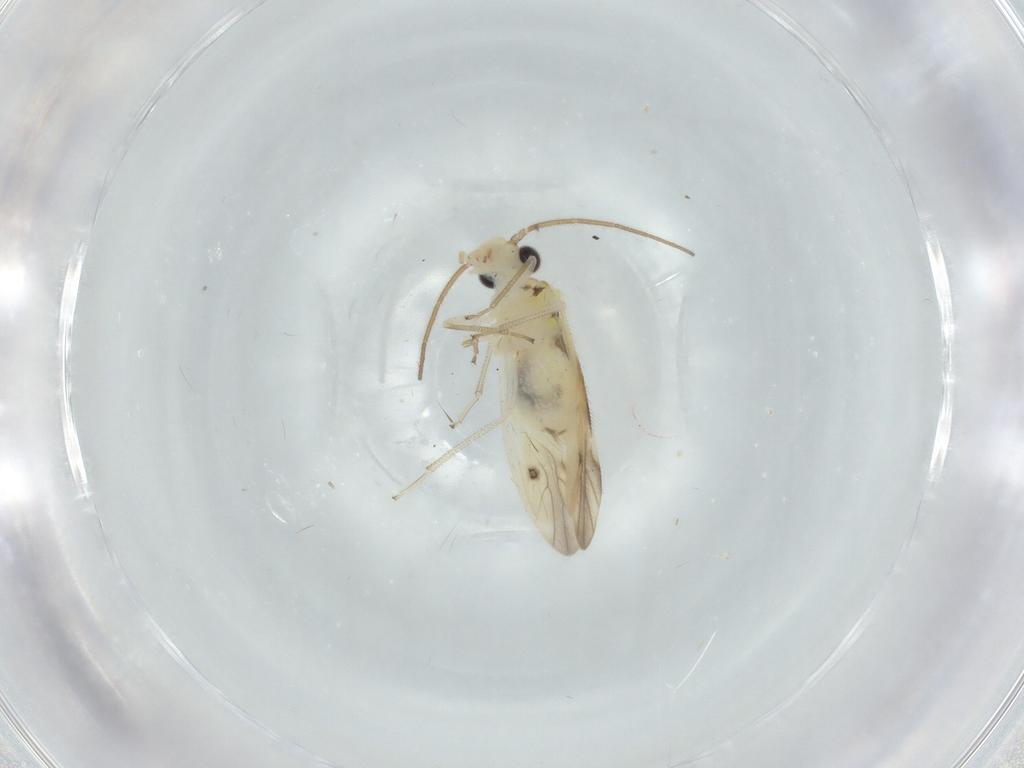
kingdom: Animalia
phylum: Arthropoda
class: Insecta
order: Psocodea
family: Caeciliusidae
